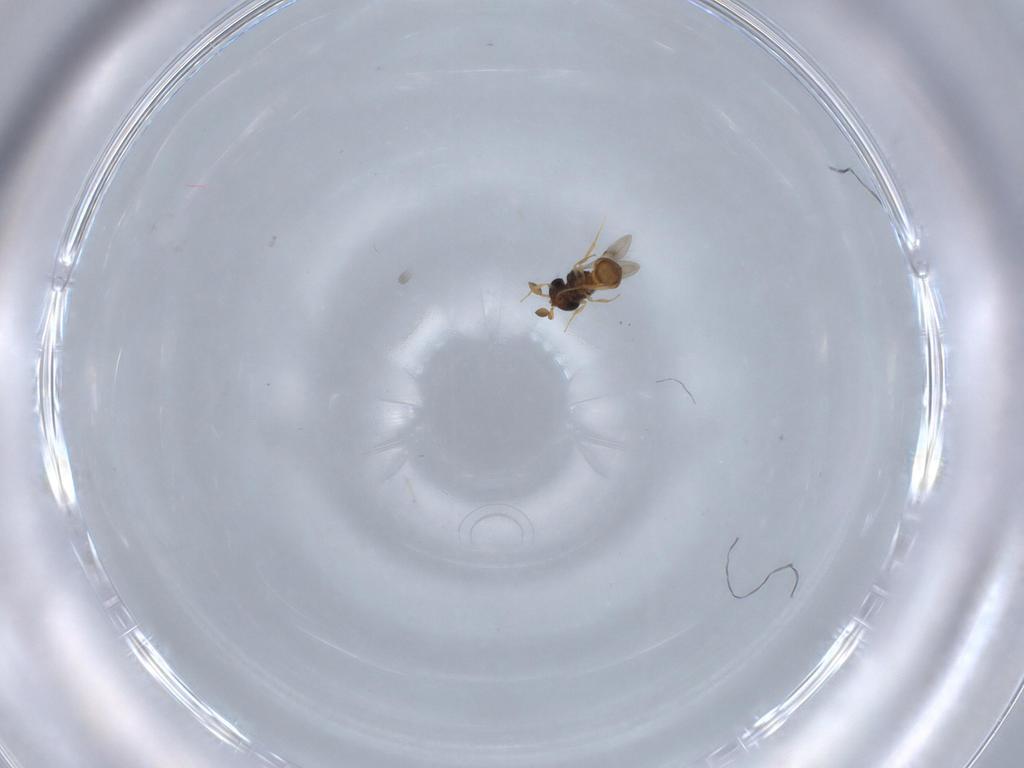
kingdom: Animalia
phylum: Arthropoda
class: Insecta
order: Hymenoptera
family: Scelionidae
